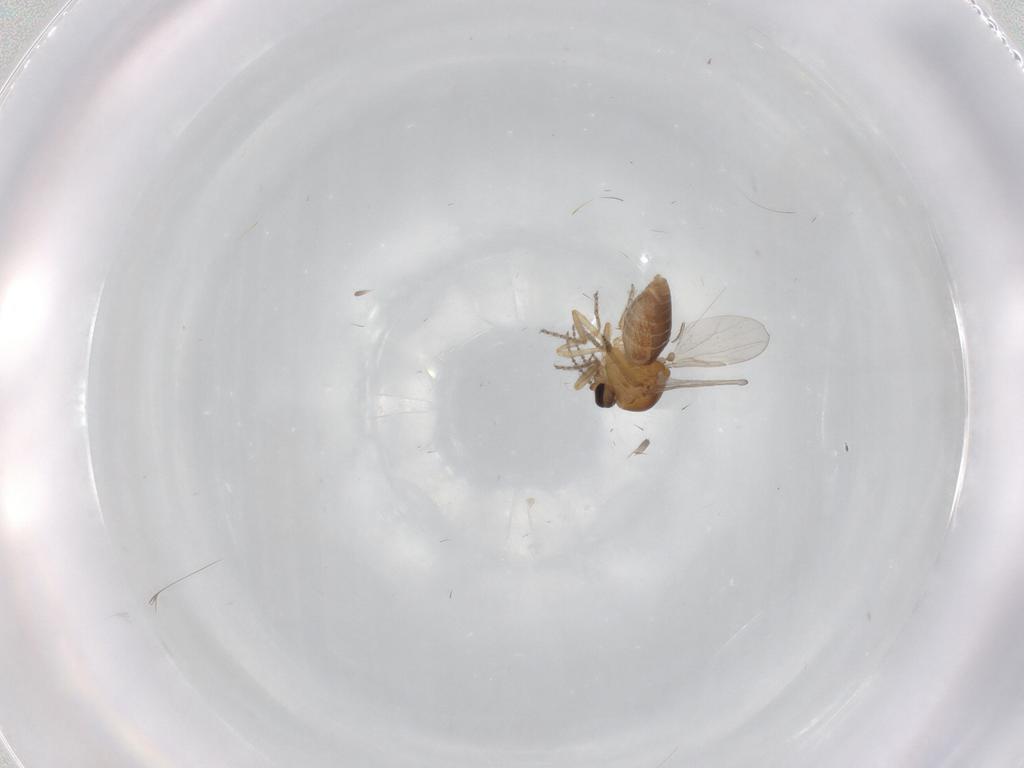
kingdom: Animalia
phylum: Arthropoda
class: Insecta
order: Diptera
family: Ceratopogonidae
